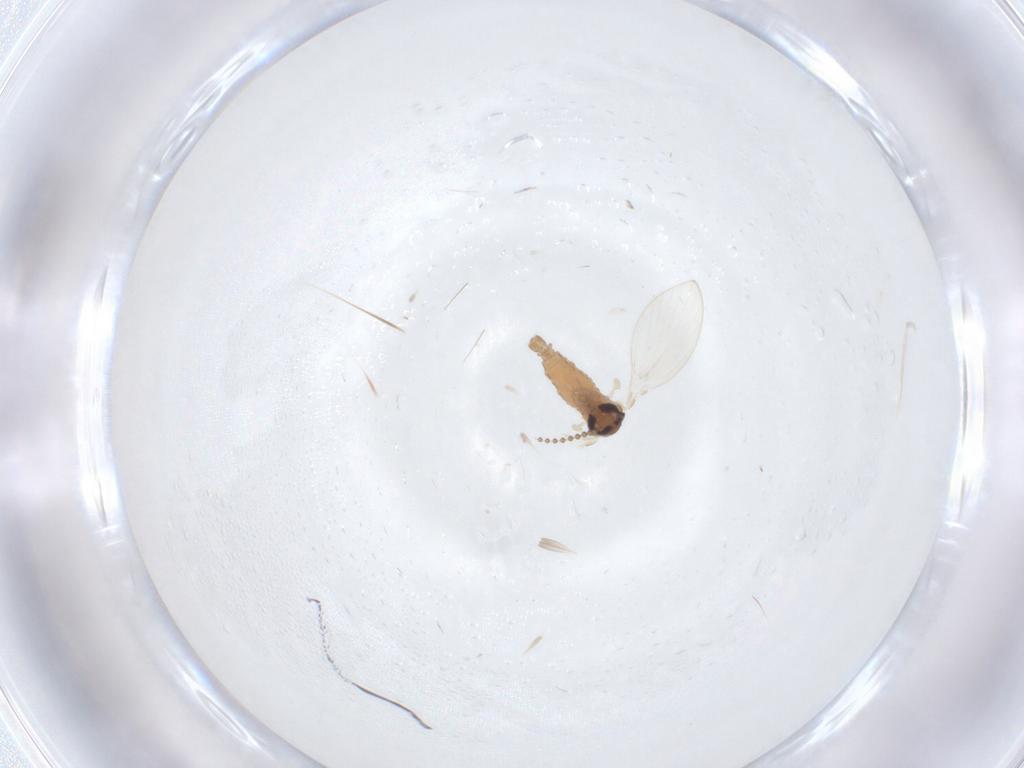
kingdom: Animalia
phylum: Arthropoda
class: Insecta
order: Diptera
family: Psychodidae
